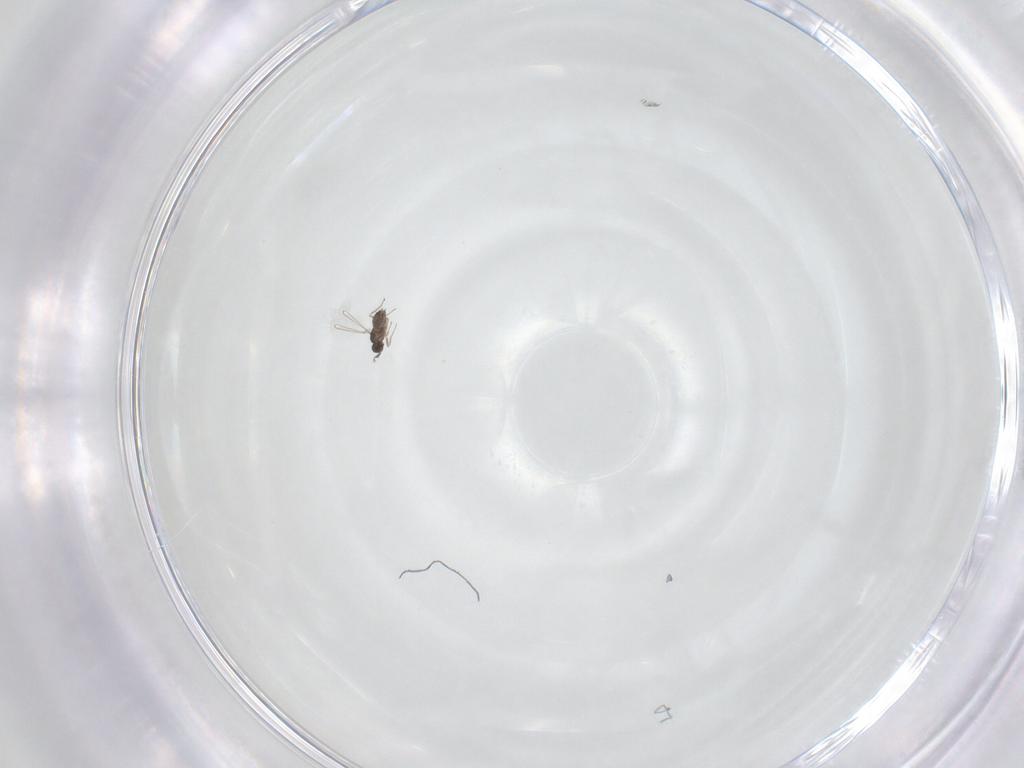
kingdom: Animalia
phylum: Arthropoda
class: Insecta
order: Hymenoptera
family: Mymaridae
